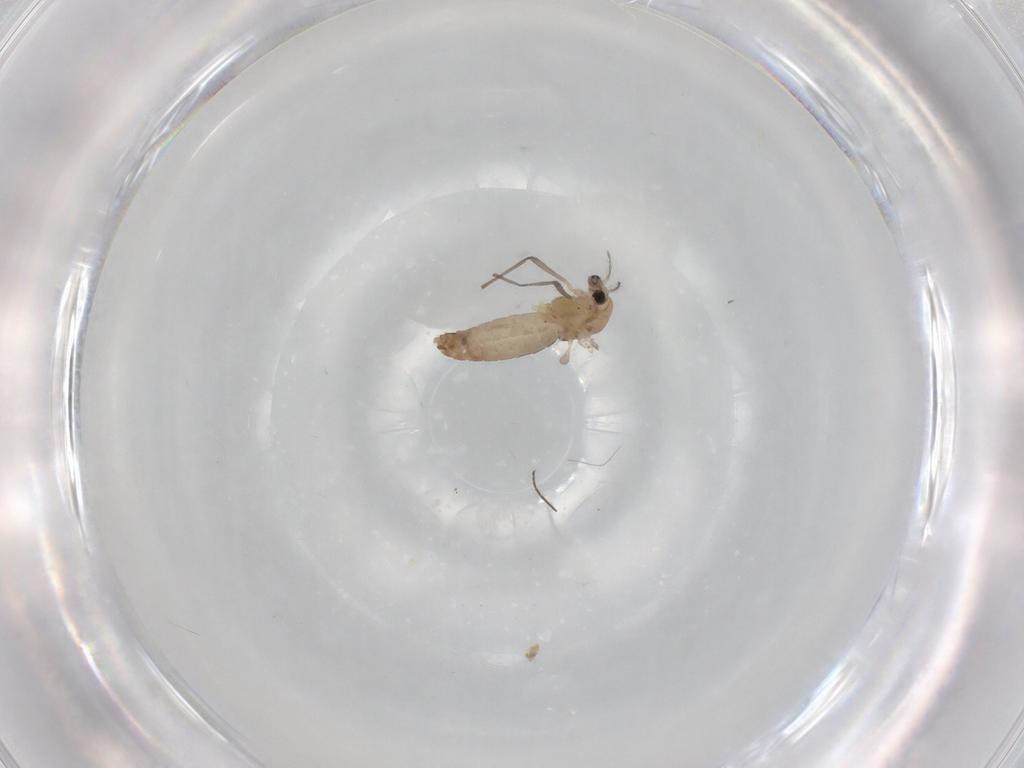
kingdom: Animalia
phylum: Arthropoda
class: Insecta
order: Diptera
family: Chironomidae
